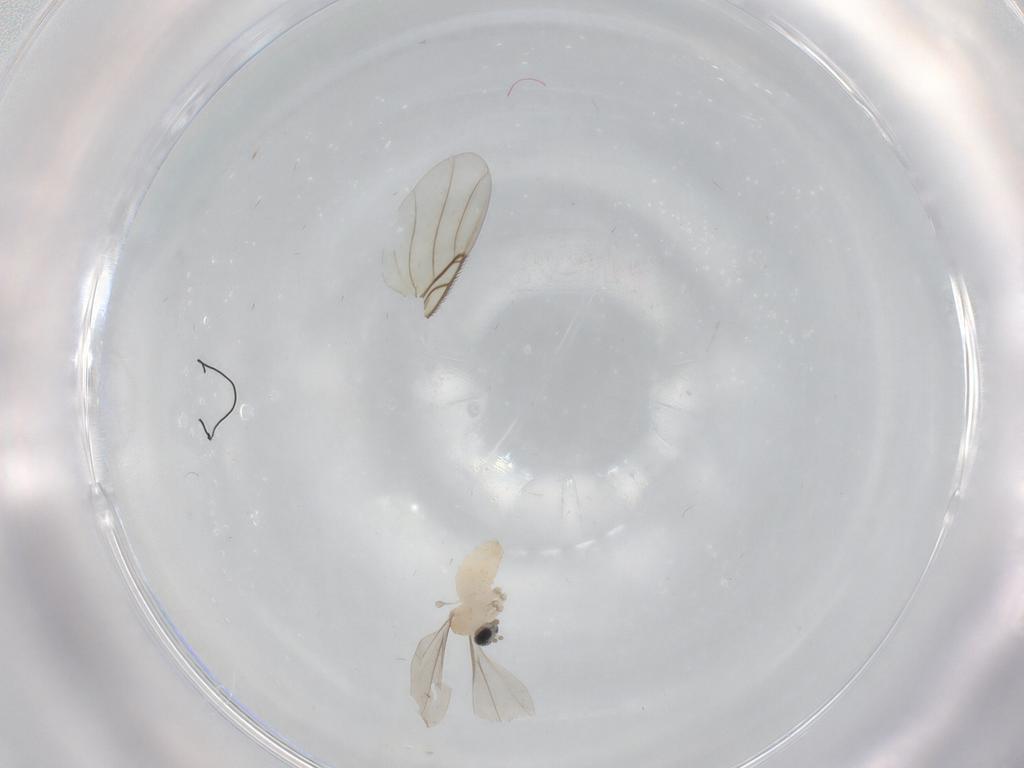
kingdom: Animalia
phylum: Arthropoda
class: Insecta
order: Diptera
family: Cecidomyiidae
